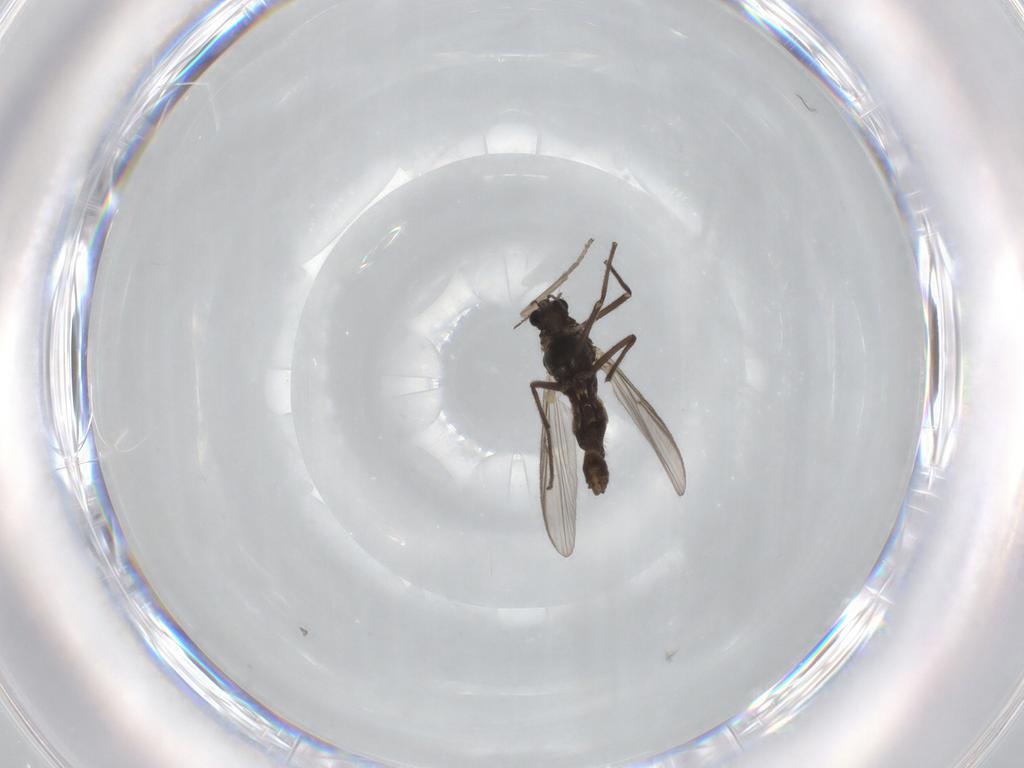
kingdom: Animalia
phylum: Arthropoda
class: Insecta
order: Diptera
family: Chironomidae
